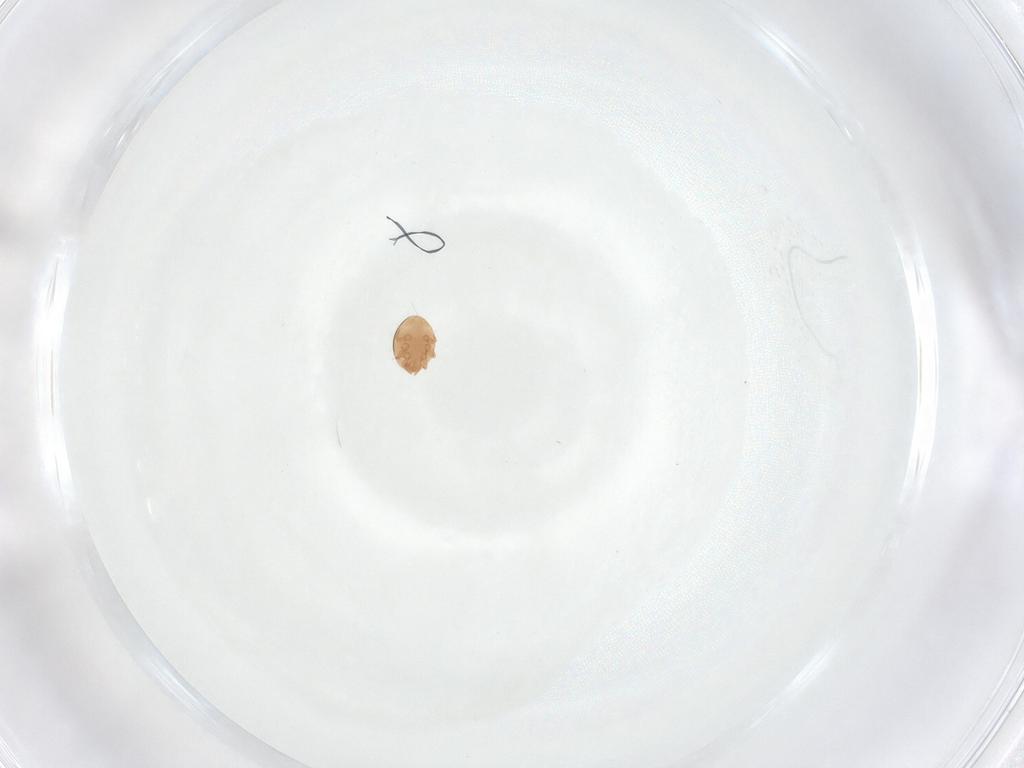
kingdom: Animalia
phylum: Arthropoda
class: Arachnida
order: Mesostigmata
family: Trematuridae
